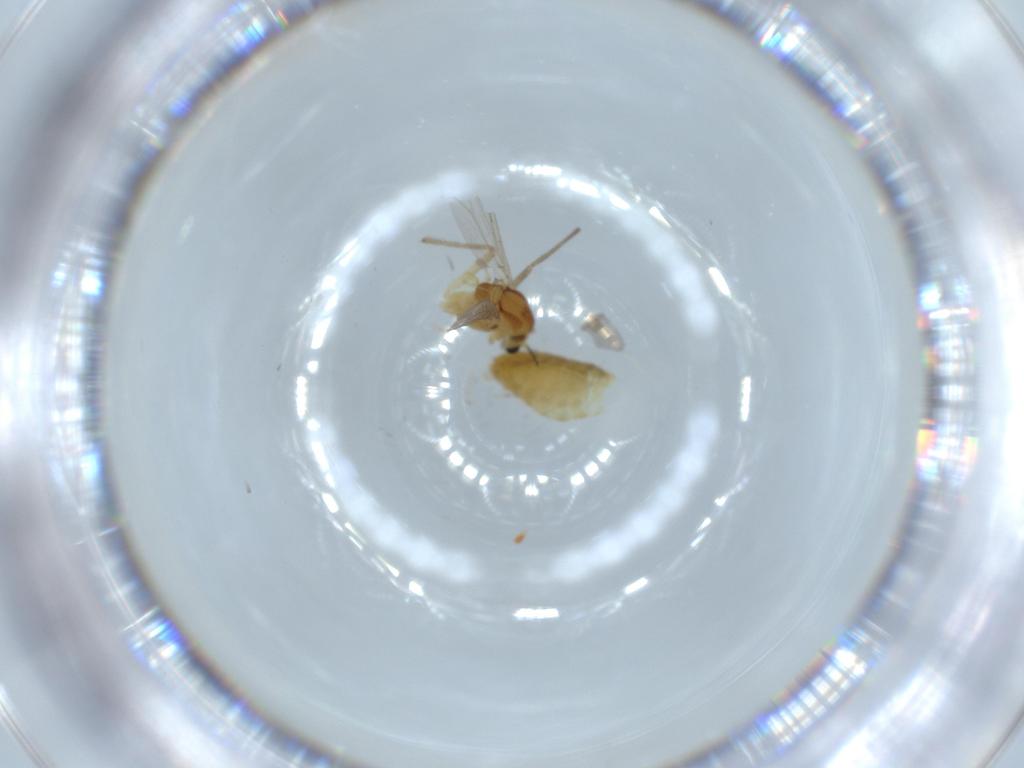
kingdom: Animalia
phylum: Arthropoda
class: Insecta
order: Diptera
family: Chironomidae
